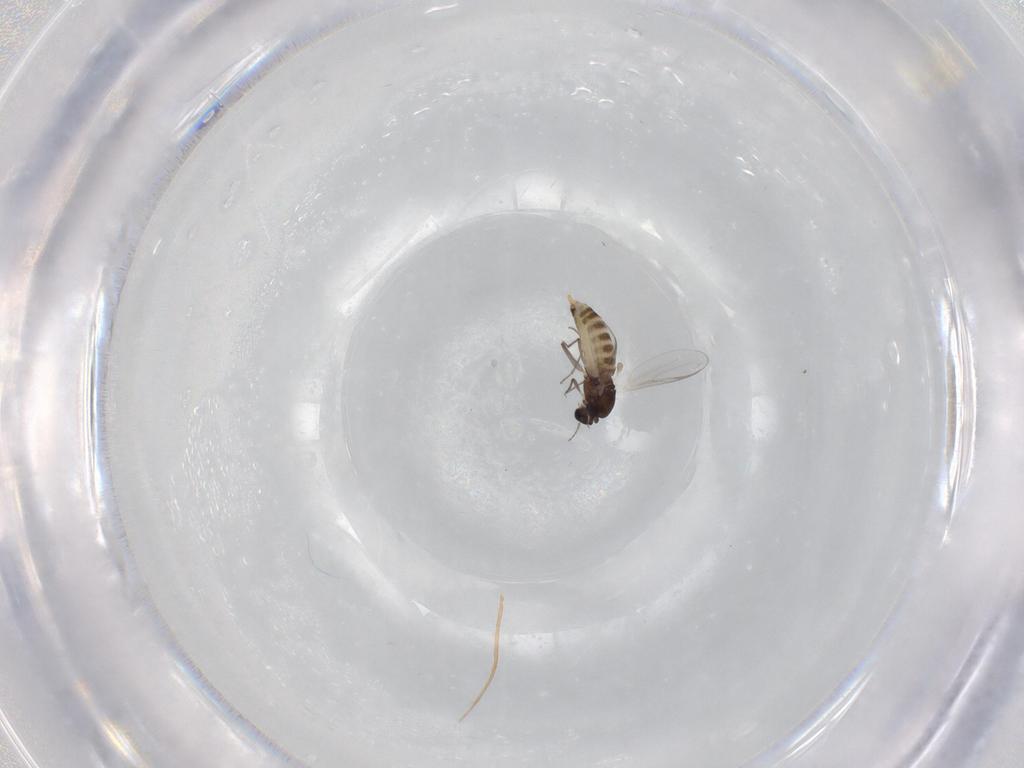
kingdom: Animalia
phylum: Arthropoda
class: Insecta
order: Diptera
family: Chironomidae
